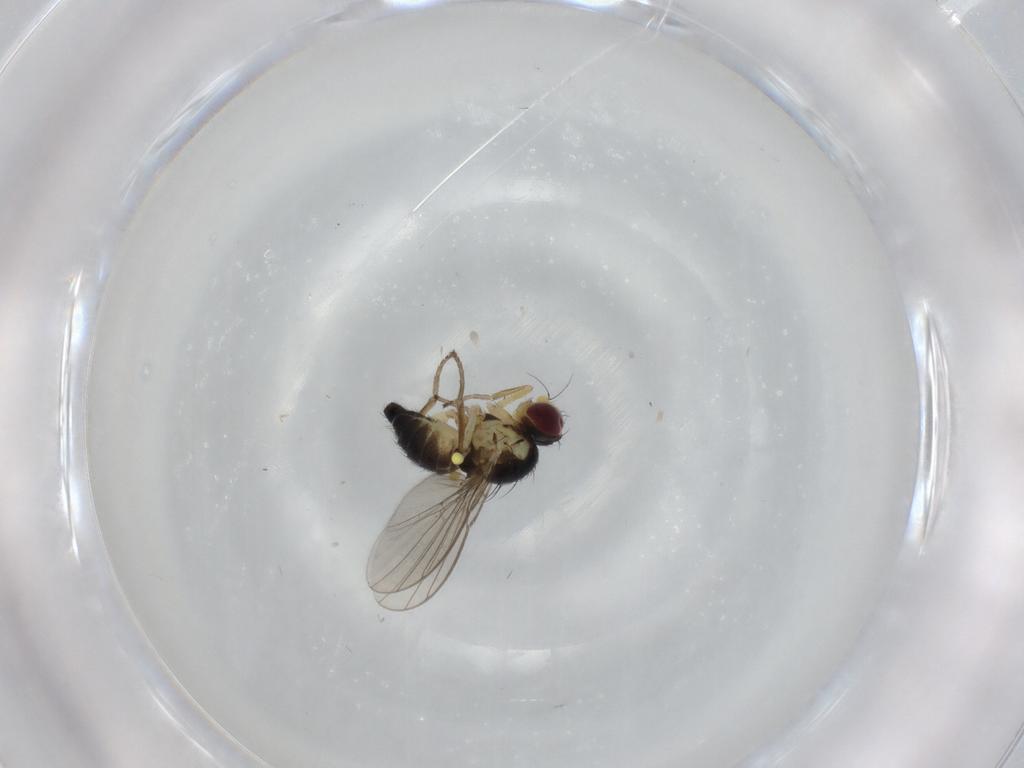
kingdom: Animalia
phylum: Arthropoda
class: Insecta
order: Diptera
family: Agromyzidae
